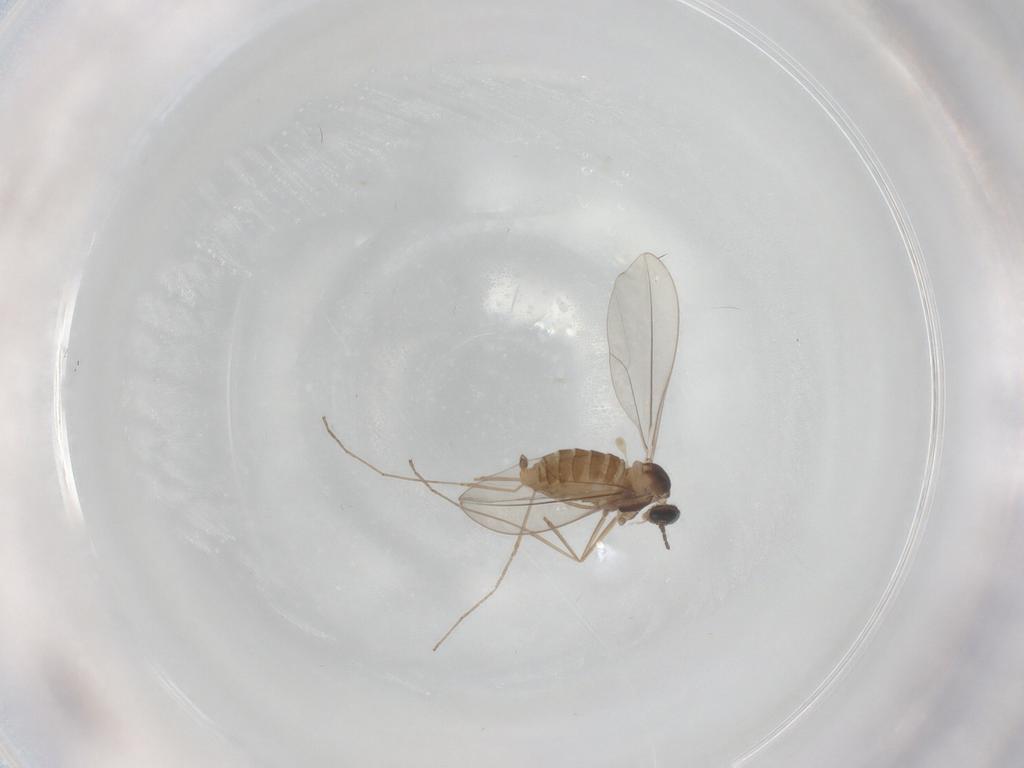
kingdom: Animalia
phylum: Arthropoda
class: Insecta
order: Diptera
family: Cecidomyiidae
